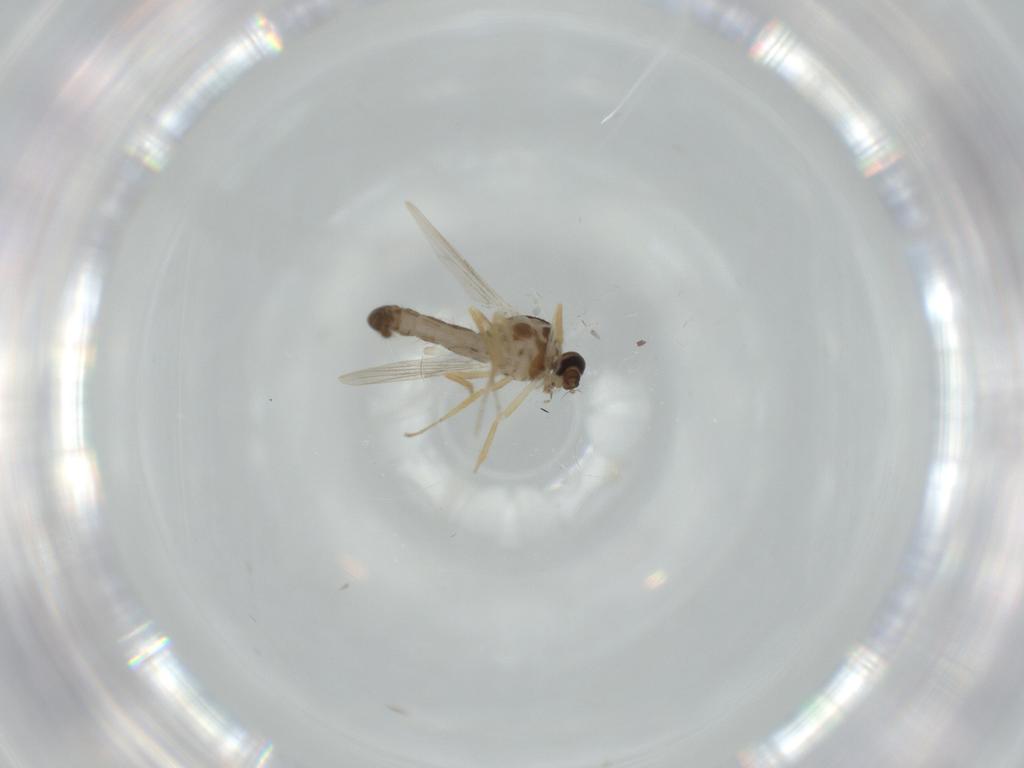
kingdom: Animalia
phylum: Arthropoda
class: Insecta
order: Diptera
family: Ceratopogonidae
